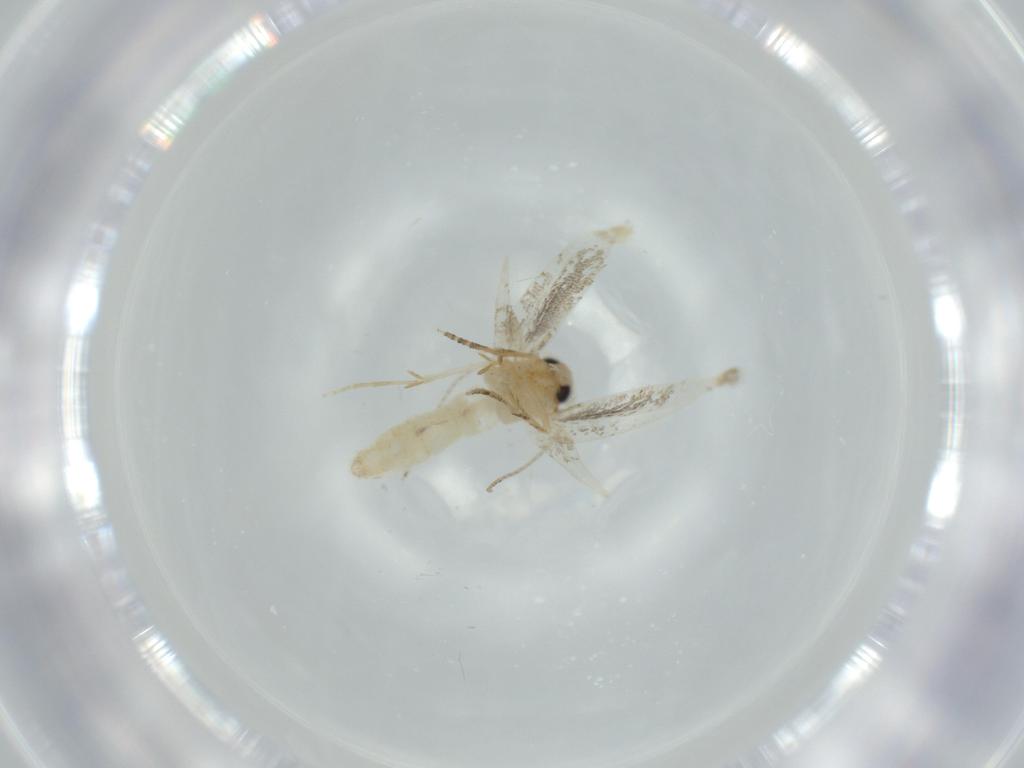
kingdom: Animalia
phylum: Arthropoda
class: Insecta
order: Lepidoptera
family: Bucculatricidae
